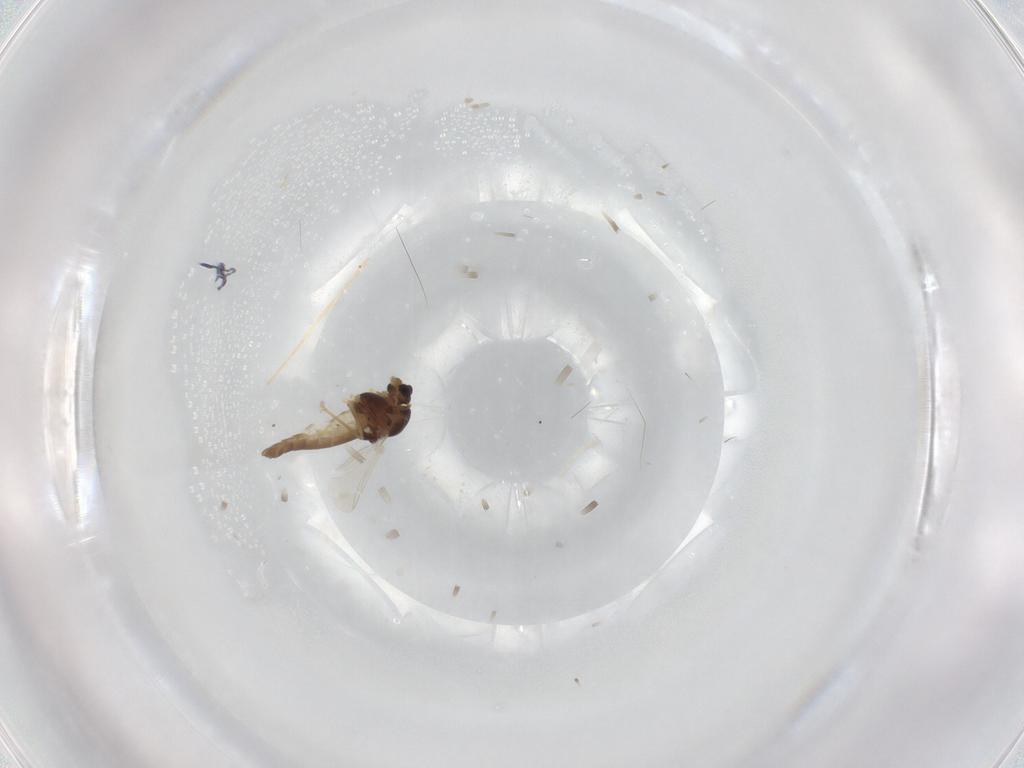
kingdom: Animalia
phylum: Arthropoda
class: Insecta
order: Diptera
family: Chironomidae
